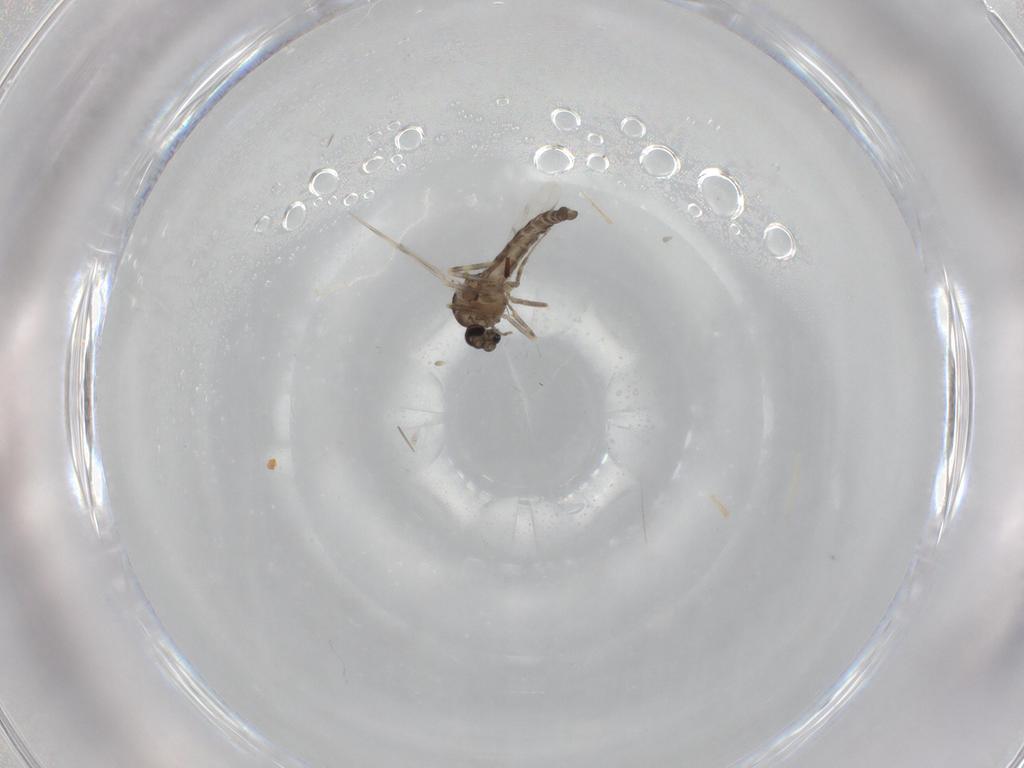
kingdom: Animalia
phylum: Arthropoda
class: Insecta
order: Diptera
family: Ceratopogonidae
